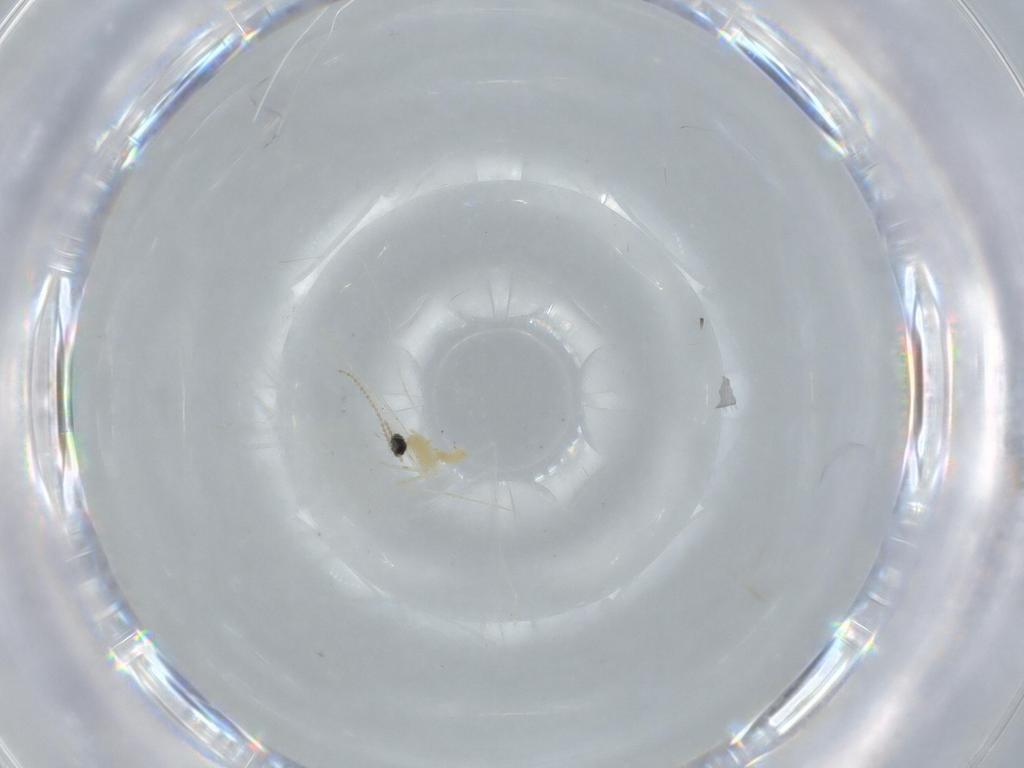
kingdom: Animalia
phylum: Arthropoda
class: Insecta
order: Diptera
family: Cecidomyiidae
